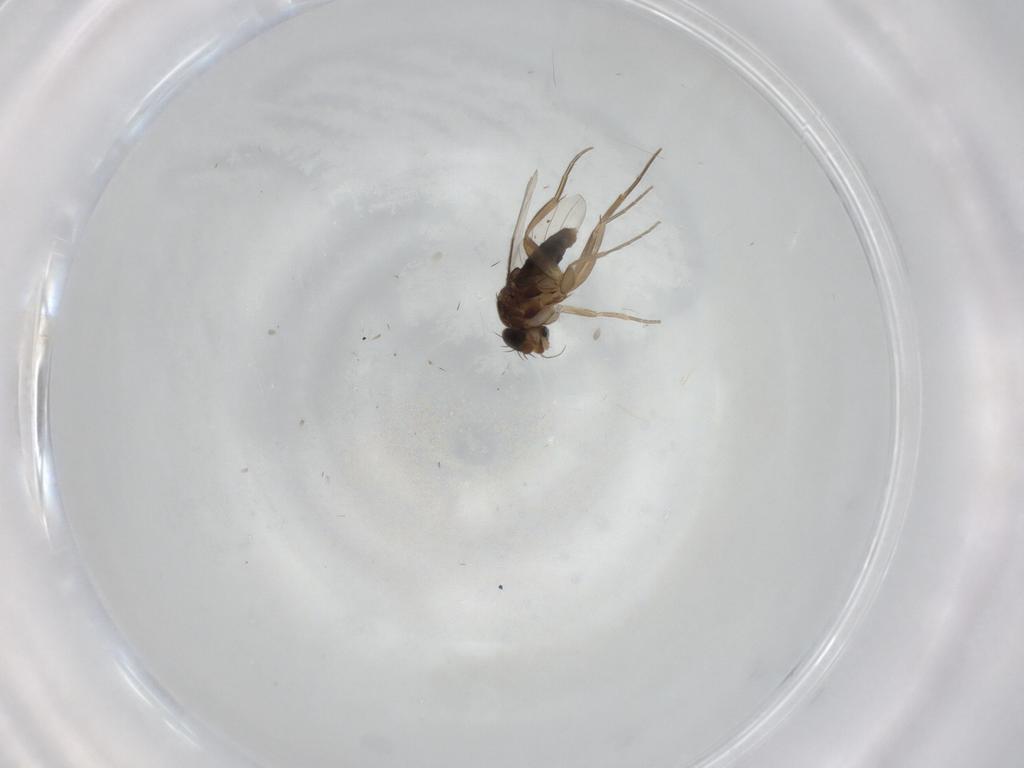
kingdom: Animalia
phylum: Arthropoda
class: Insecta
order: Diptera
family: Phoridae
